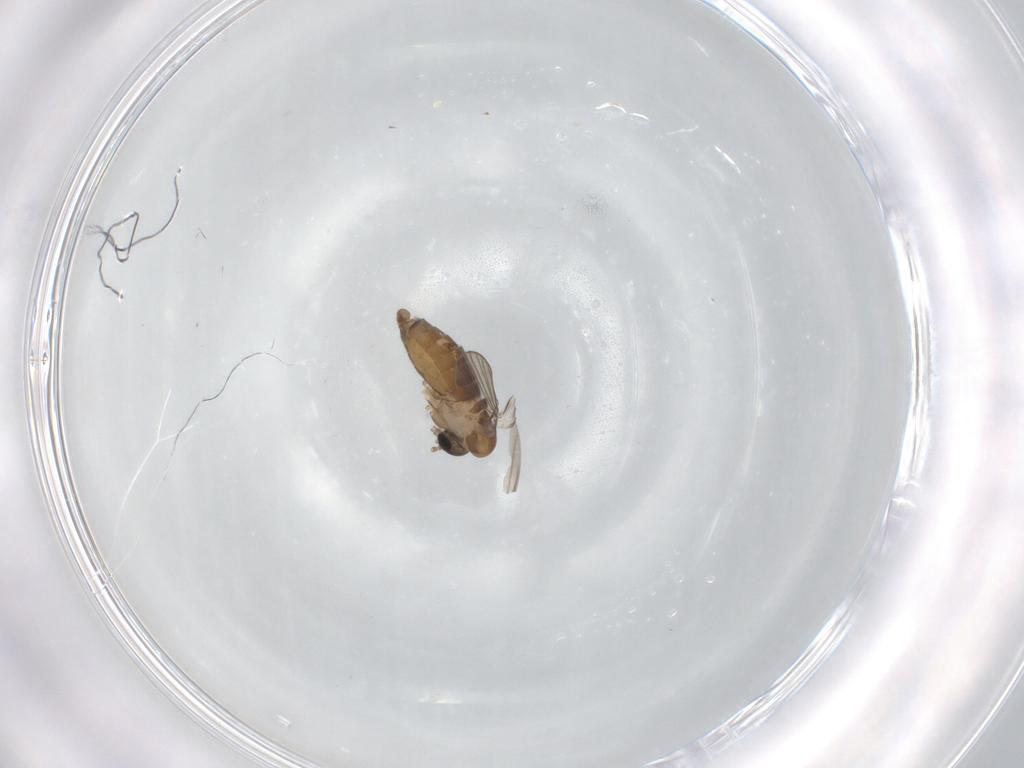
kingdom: Animalia
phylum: Arthropoda
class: Insecta
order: Diptera
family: Psychodidae
